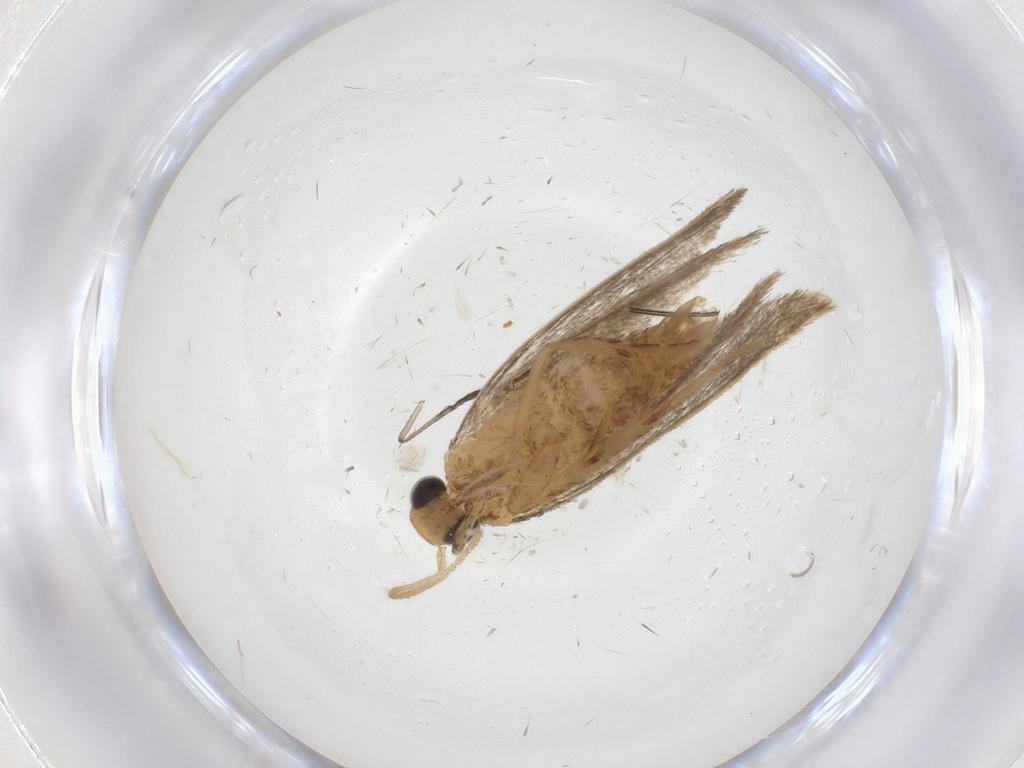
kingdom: Animalia
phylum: Arthropoda
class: Insecta
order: Lepidoptera
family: Oecophoridae
